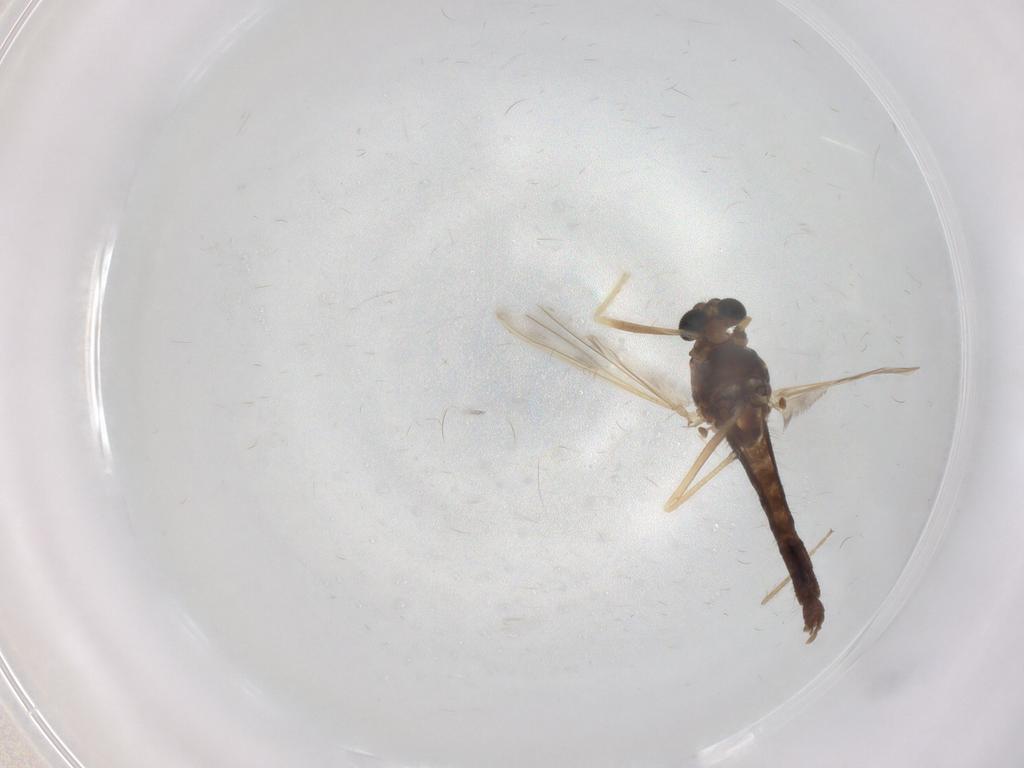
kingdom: Animalia
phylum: Arthropoda
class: Insecta
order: Diptera
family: Chironomidae
